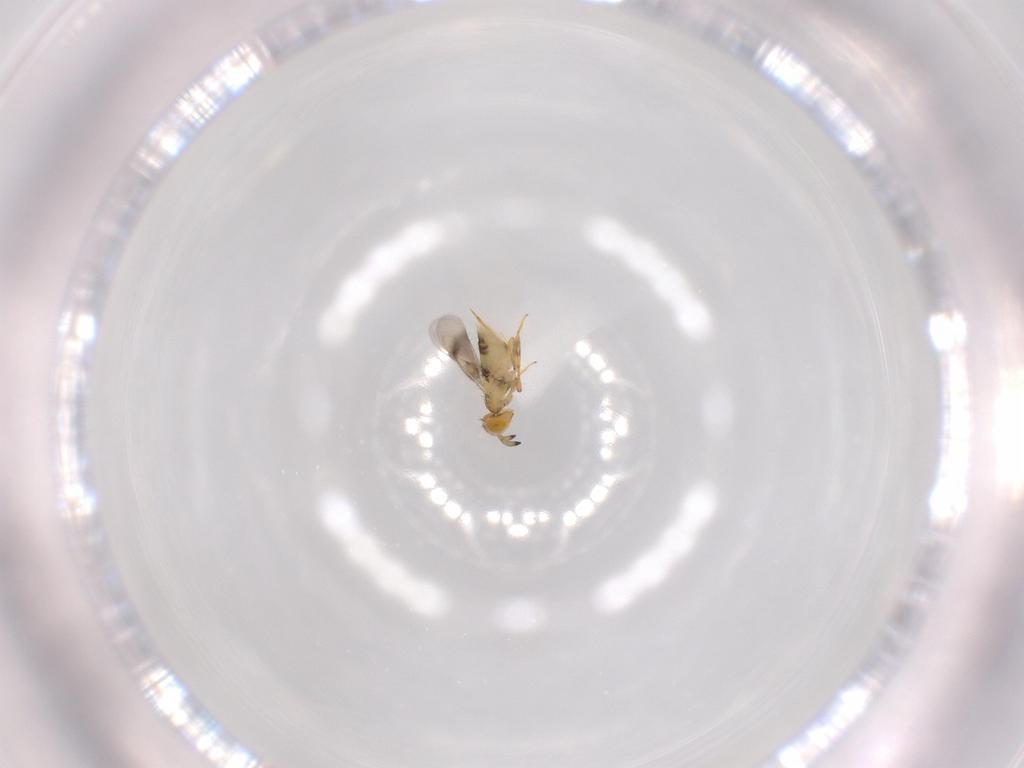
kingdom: Animalia
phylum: Arthropoda
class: Insecta
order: Hymenoptera
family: Aphelinidae
